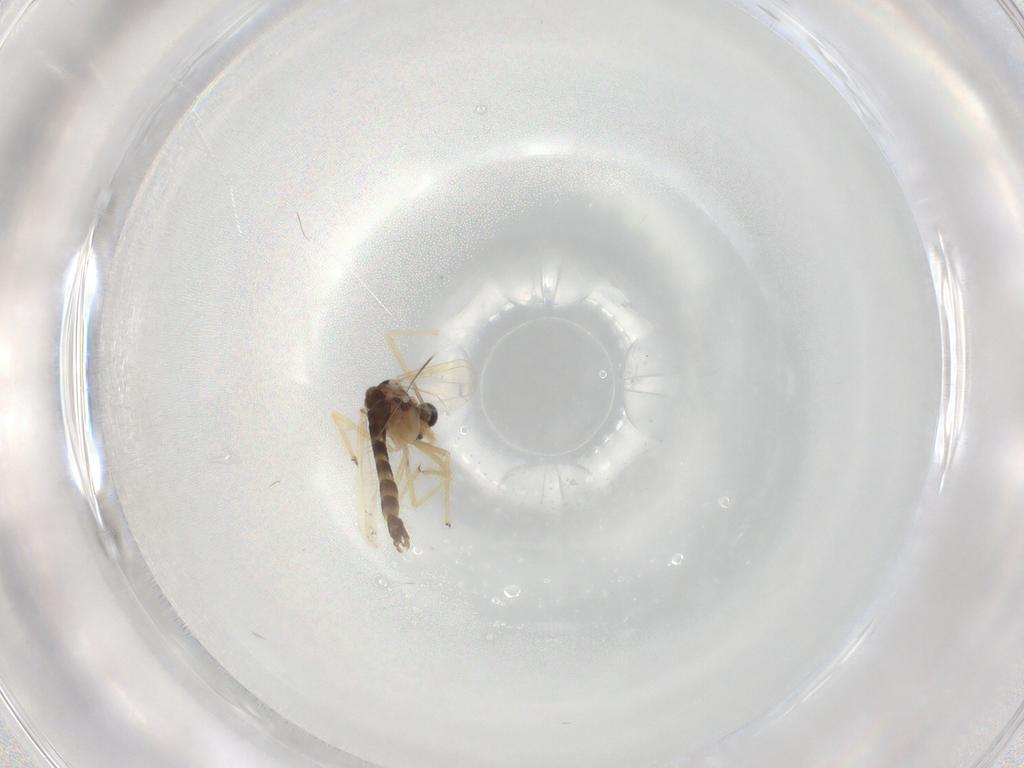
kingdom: Animalia
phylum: Arthropoda
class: Insecta
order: Diptera
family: Chironomidae
